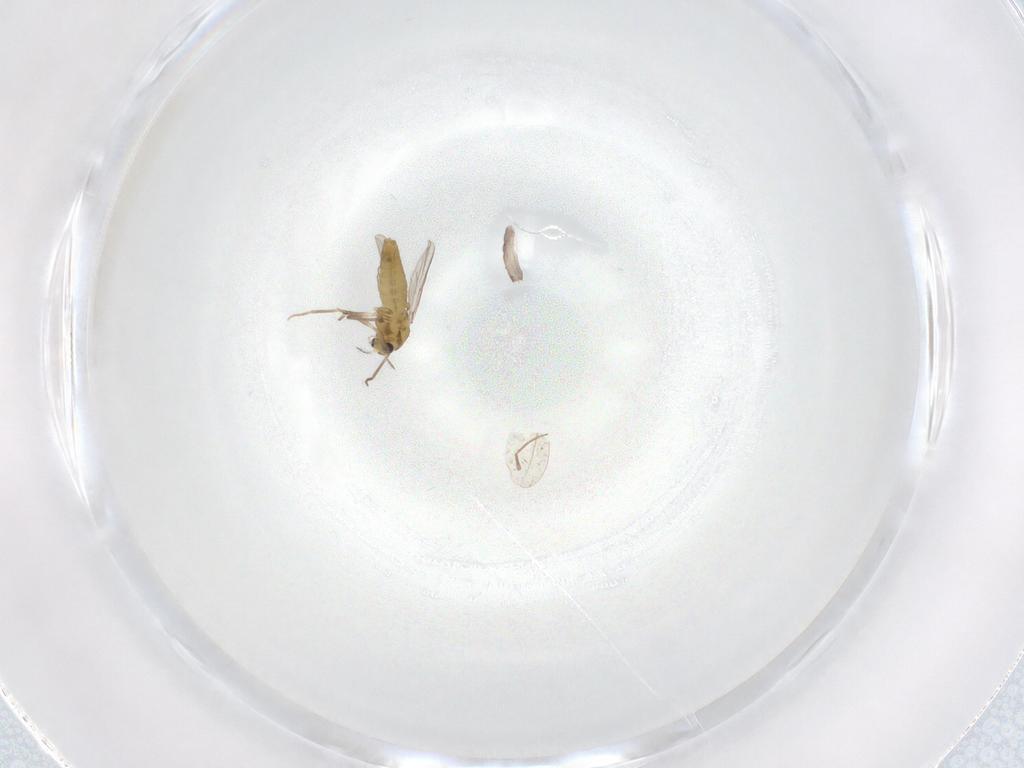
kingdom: Animalia
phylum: Arthropoda
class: Insecta
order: Diptera
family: Chironomidae
